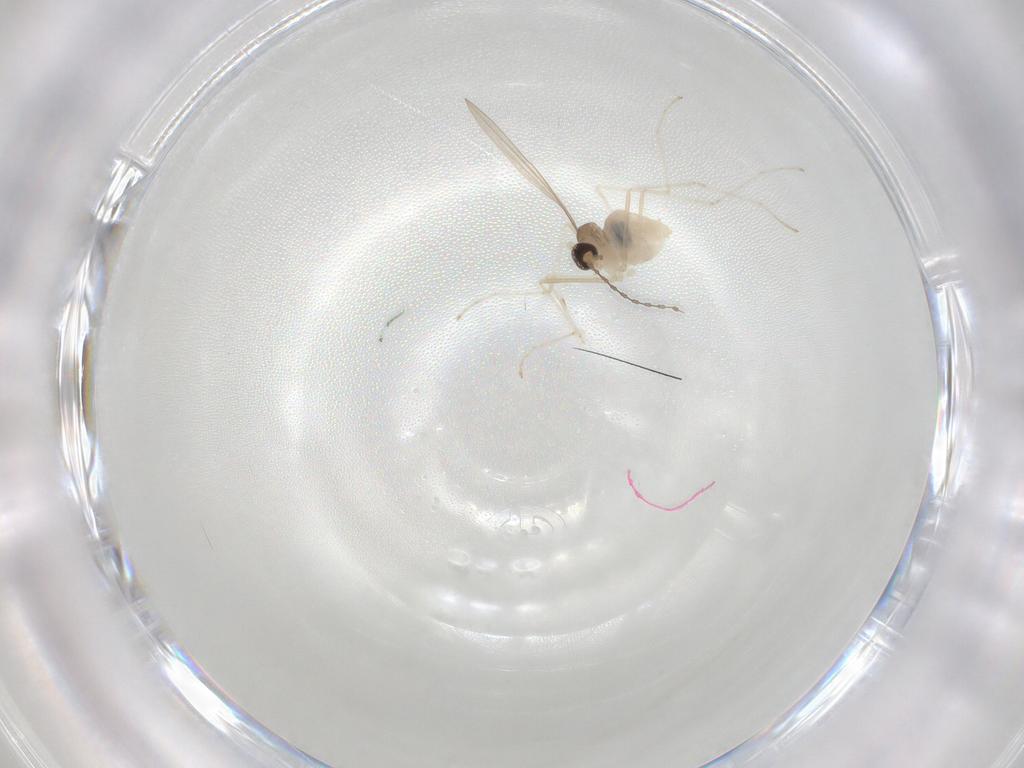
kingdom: Animalia
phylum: Arthropoda
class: Insecta
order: Diptera
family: Cecidomyiidae
